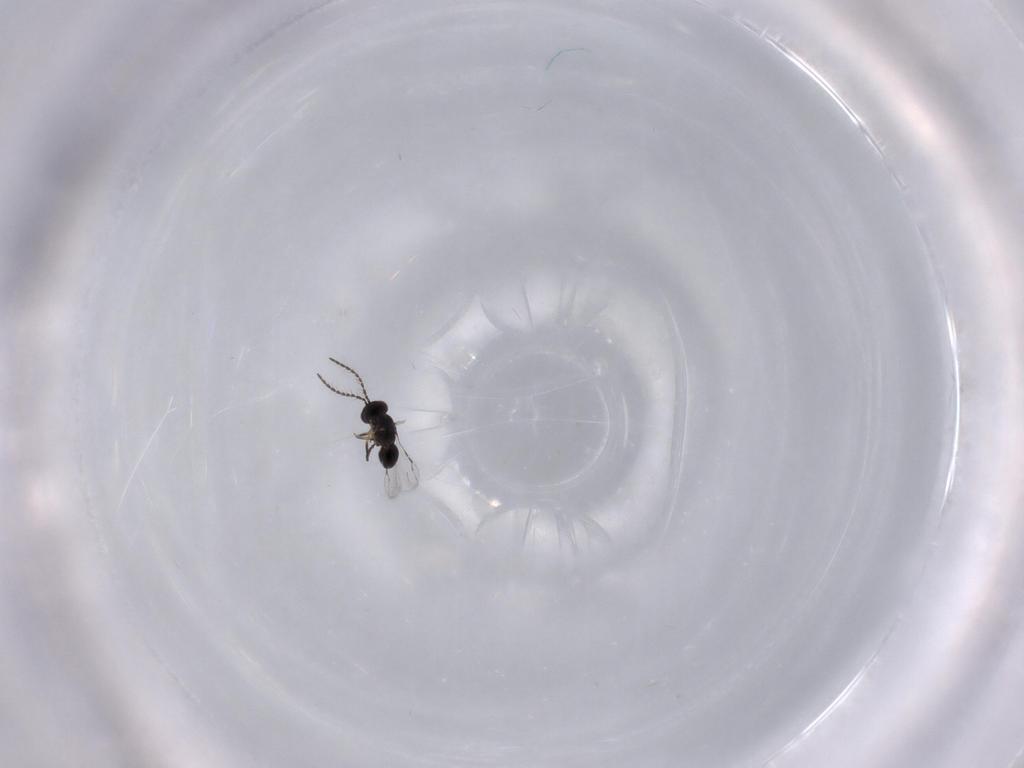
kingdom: Animalia
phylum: Arthropoda
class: Insecta
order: Hymenoptera
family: Ceraphronidae
